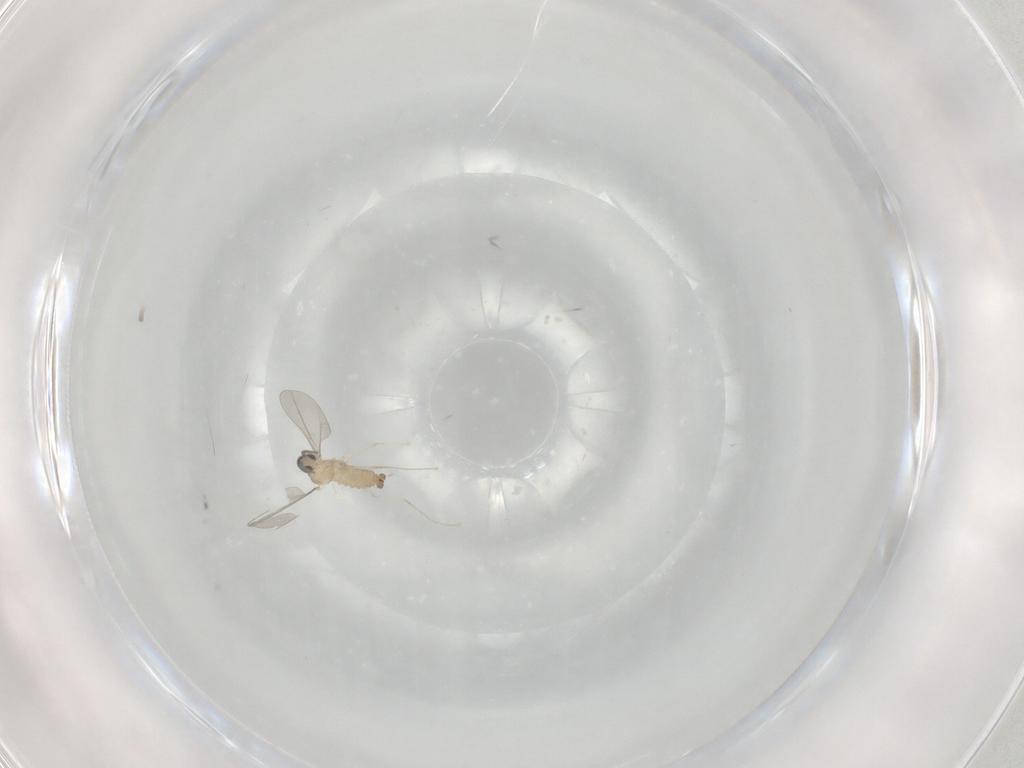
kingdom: Animalia
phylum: Arthropoda
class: Insecta
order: Diptera
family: Cecidomyiidae
